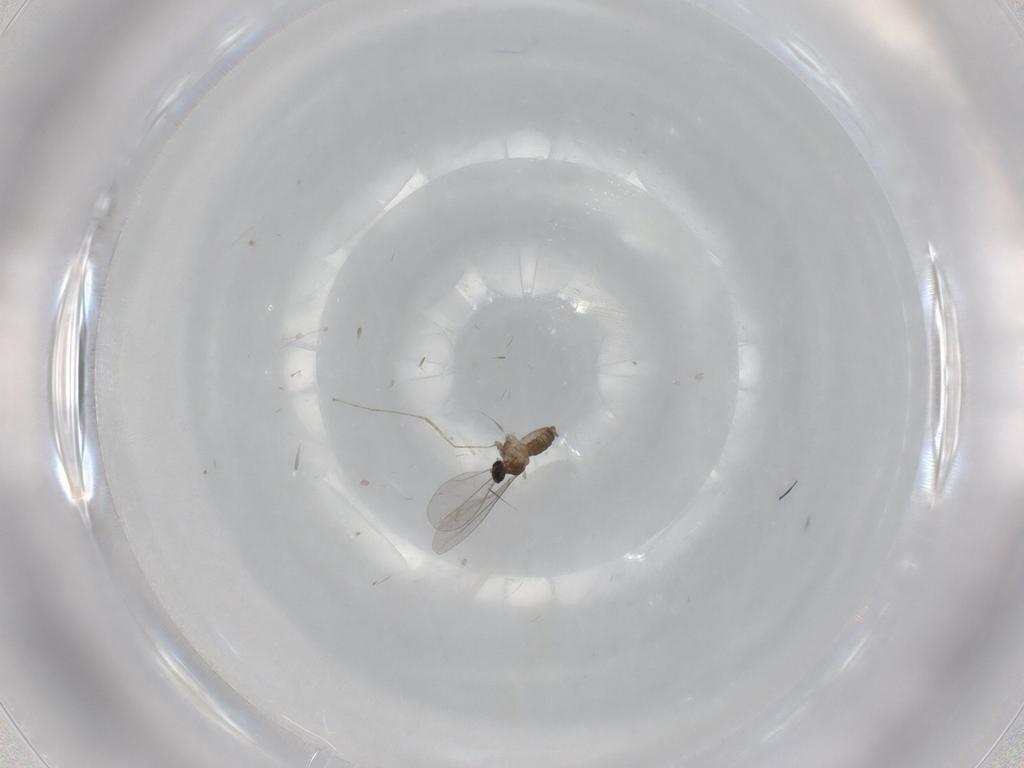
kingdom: Animalia
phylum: Arthropoda
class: Insecta
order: Diptera
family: Cecidomyiidae
